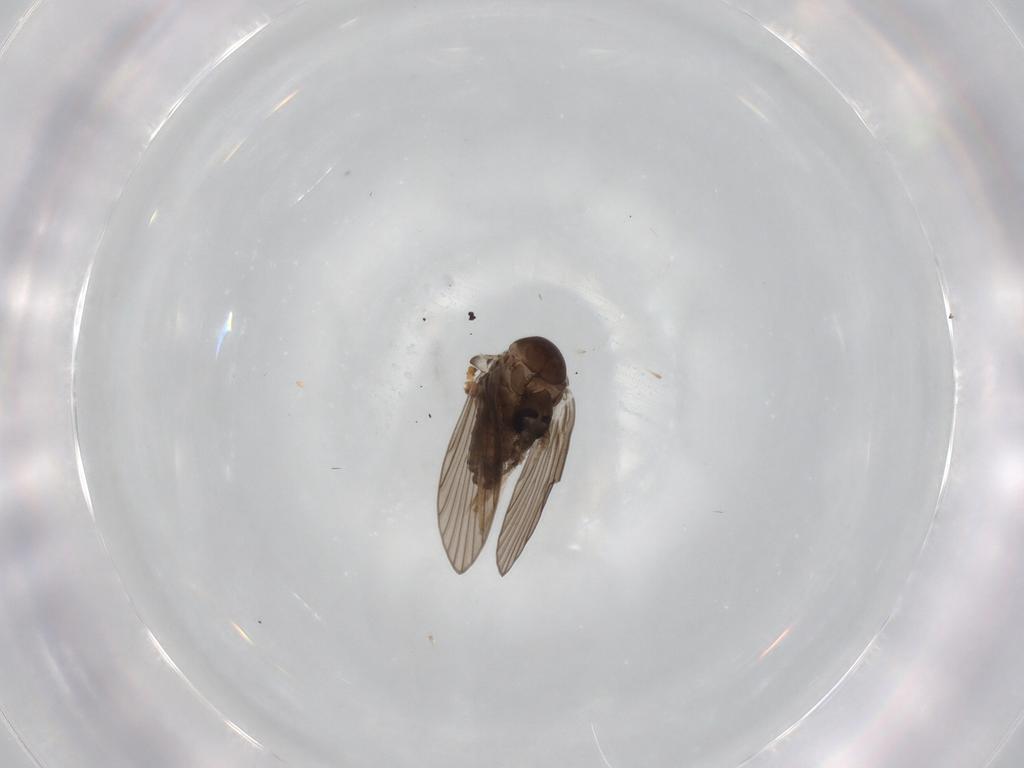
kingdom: Animalia
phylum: Arthropoda
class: Insecta
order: Diptera
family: Psychodidae
